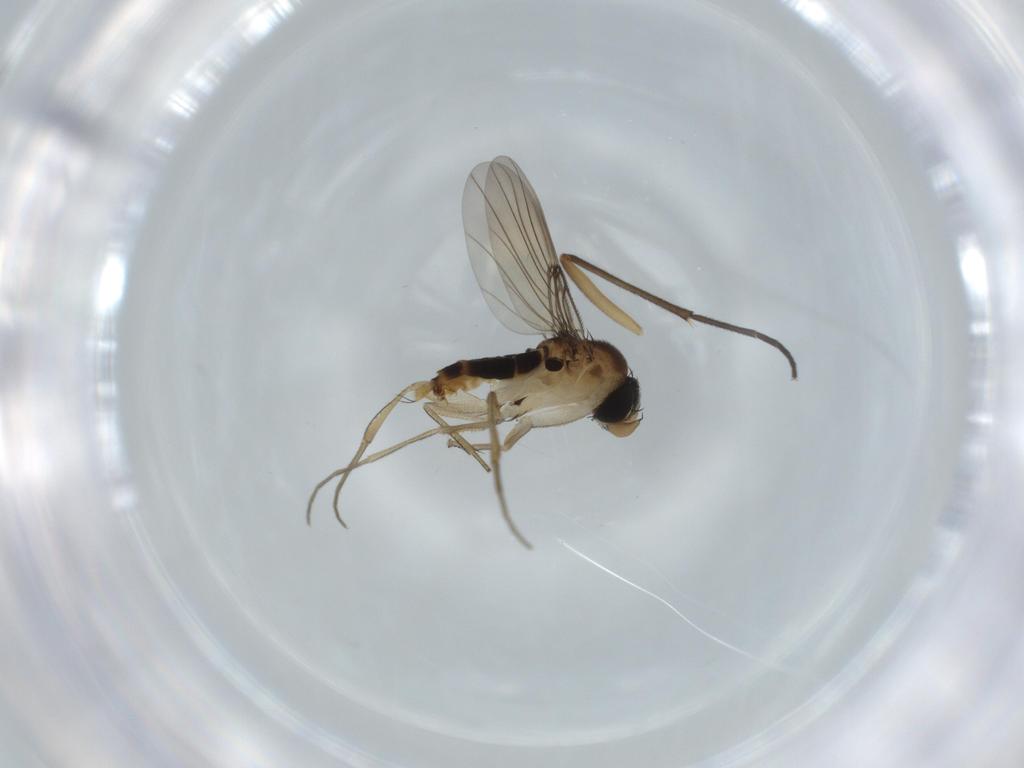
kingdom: Animalia
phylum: Arthropoda
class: Insecta
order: Diptera
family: Phoridae
